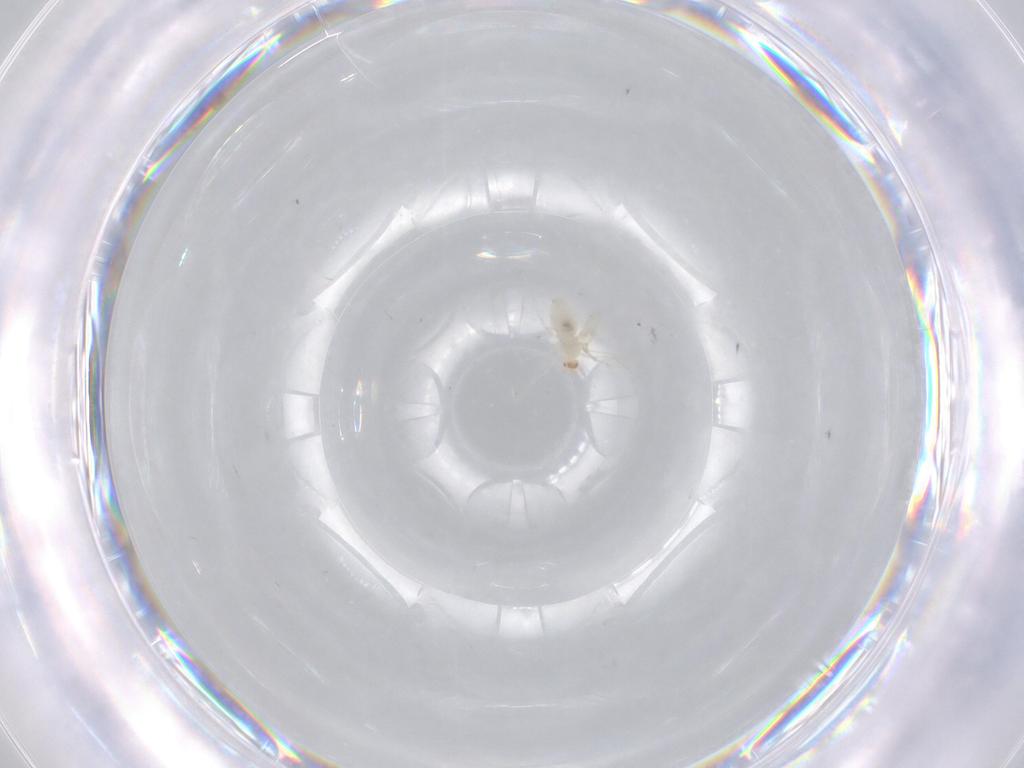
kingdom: Animalia
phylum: Arthropoda
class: Insecta
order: Diptera
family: Cecidomyiidae
